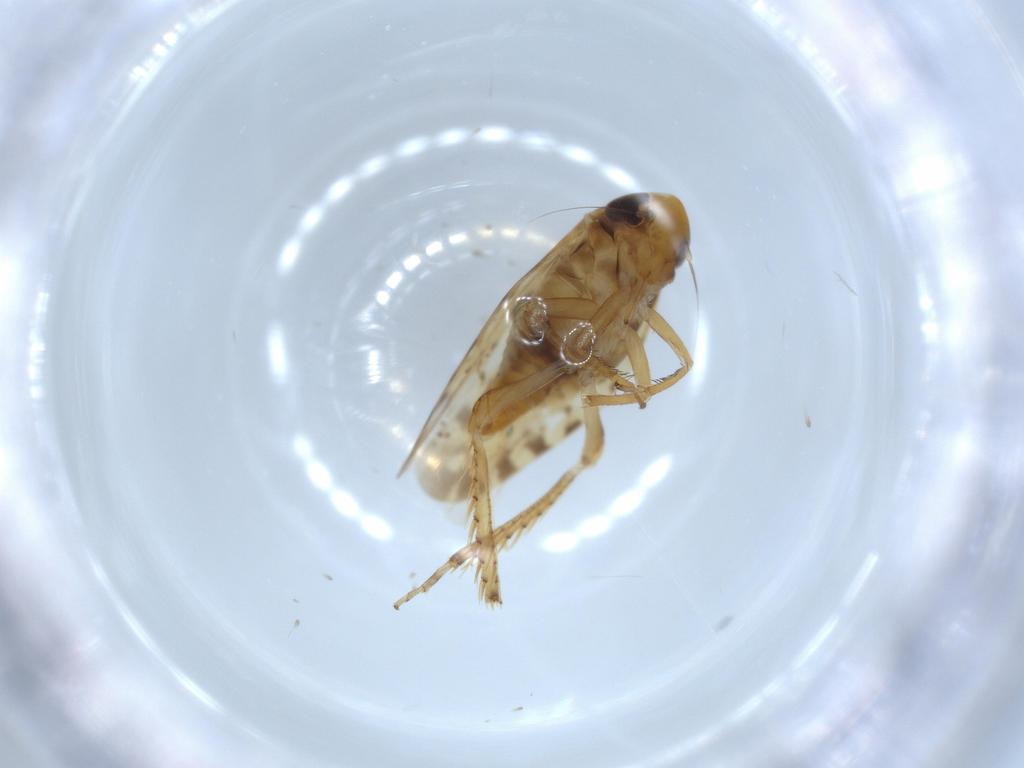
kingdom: Animalia
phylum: Arthropoda
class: Insecta
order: Hemiptera
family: Cicadellidae
